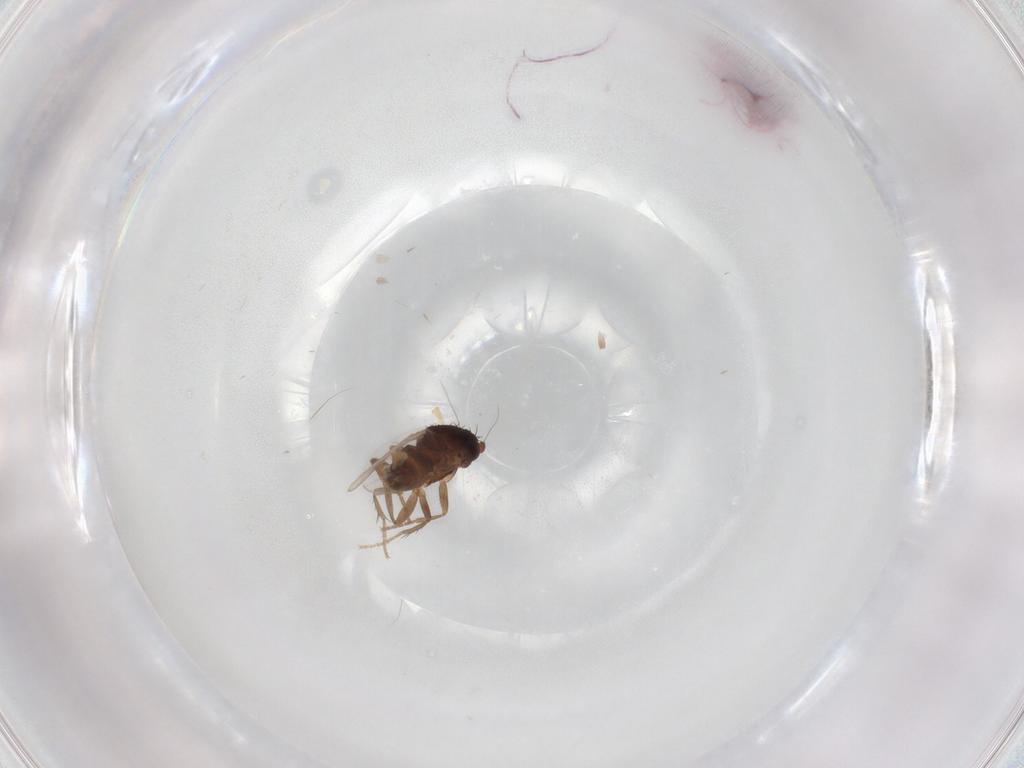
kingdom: Animalia
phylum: Arthropoda
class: Insecta
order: Diptera
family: Sphaeroceridae
